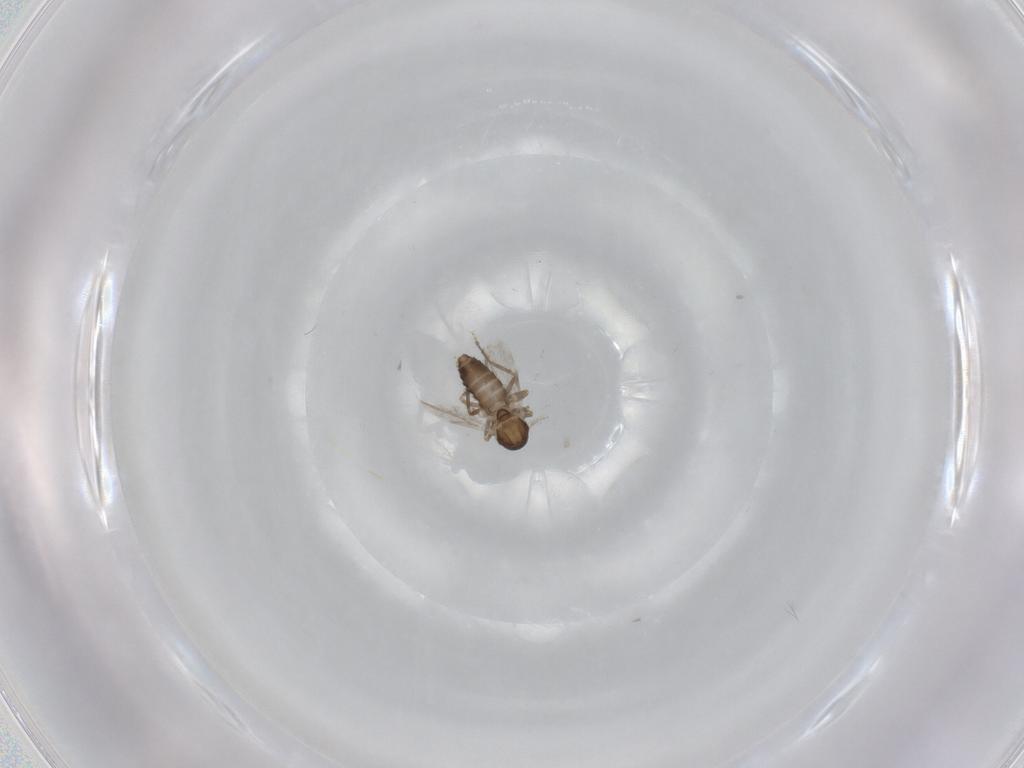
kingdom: Animalia
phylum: Arthropoda
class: Insecta
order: Diptera
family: Ceratopogonidae
